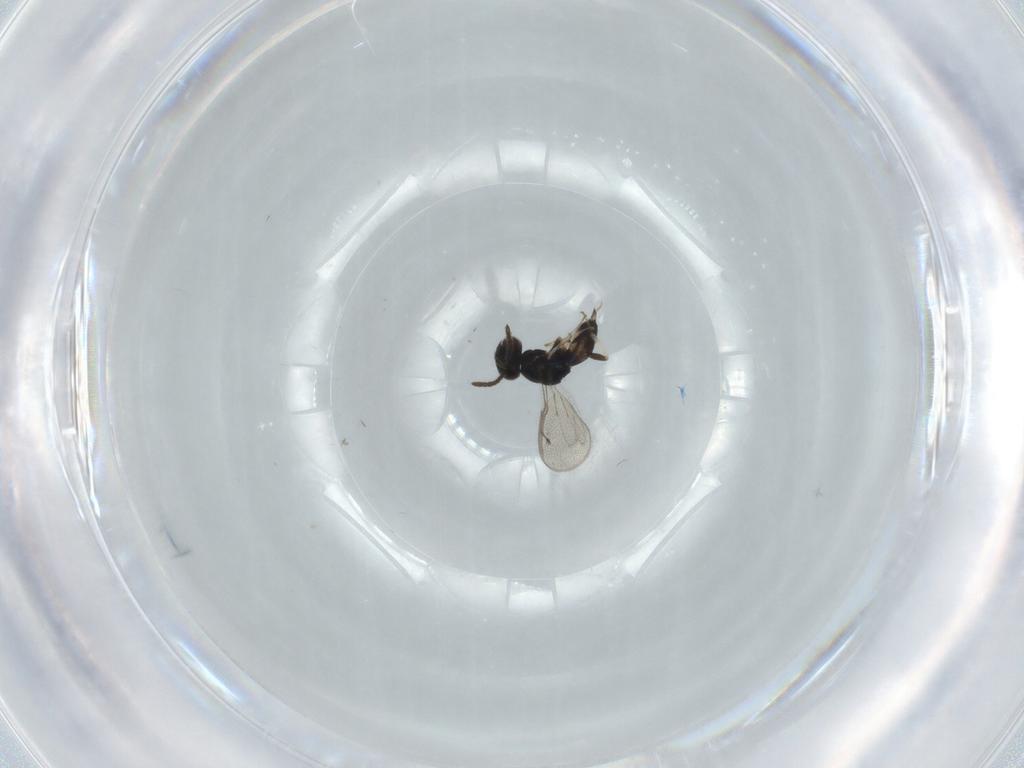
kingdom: Animalia
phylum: Arthropoda
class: Insecta
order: Hymenoptera
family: Pteromalidae
